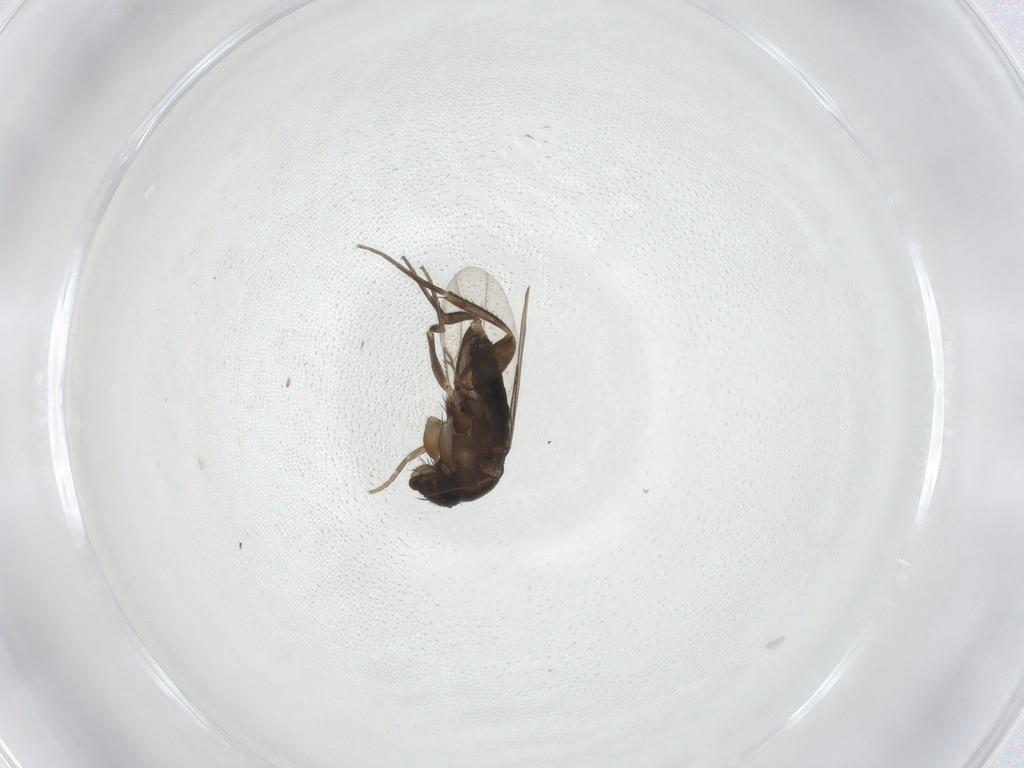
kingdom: Animalia
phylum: Arthropoda
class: Insecta
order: Diptera
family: Phoridae
